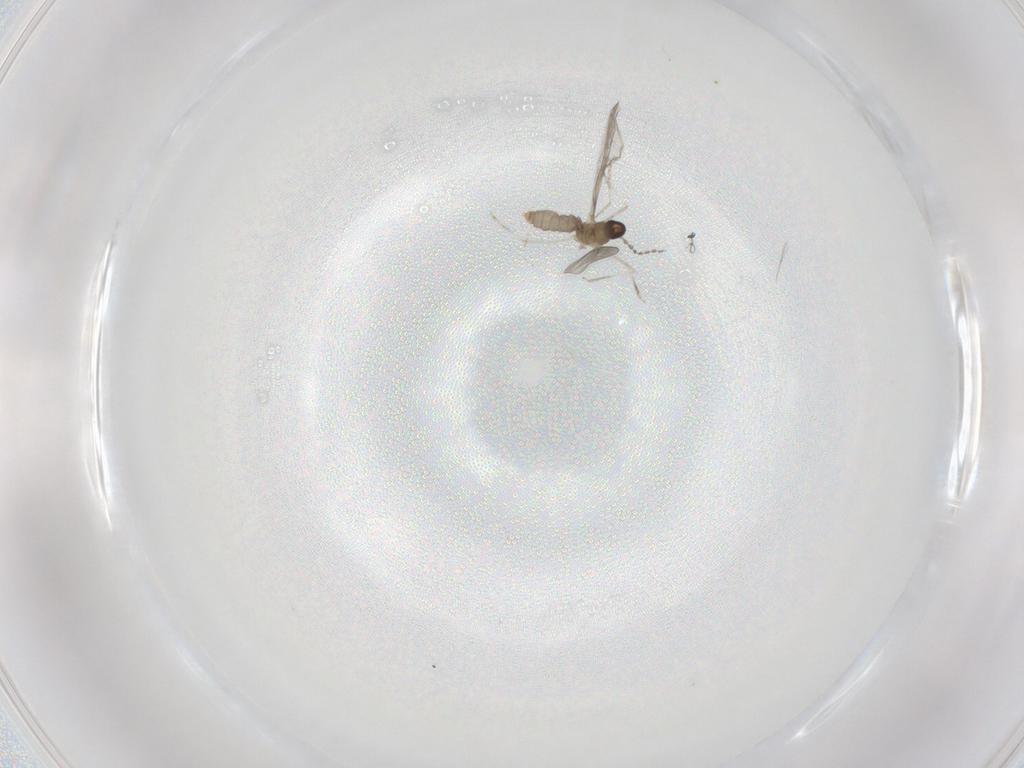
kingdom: Animalia
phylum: Arthropoda
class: Insecta
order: Diptera
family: Cecidomyiidae
